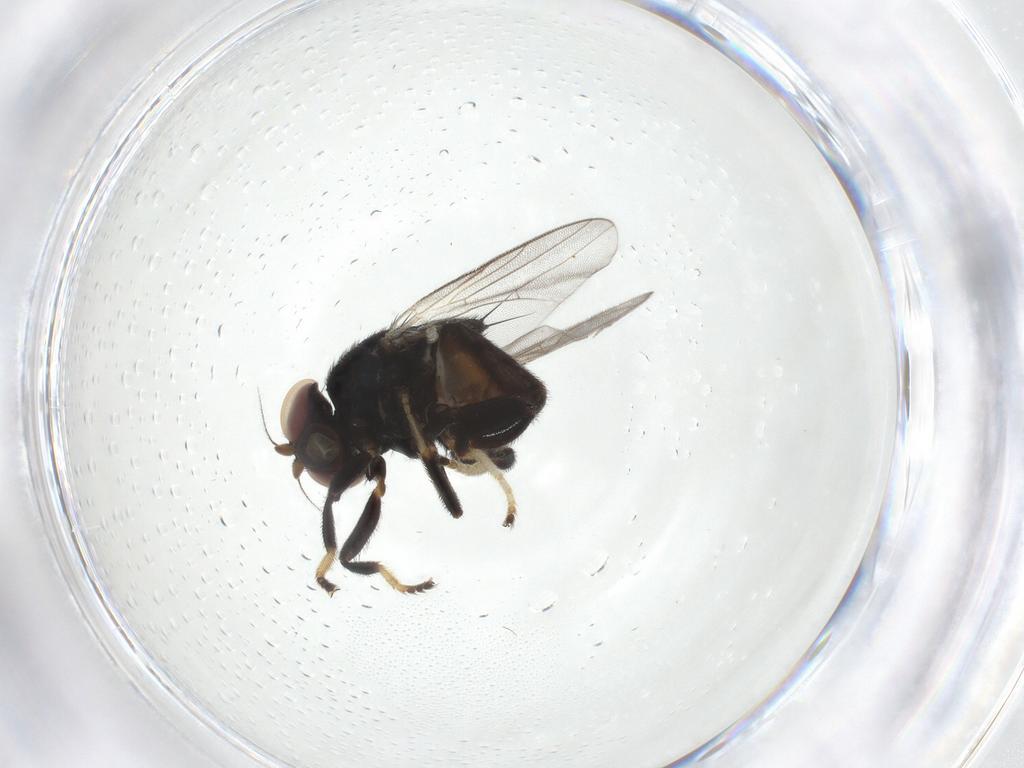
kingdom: Animalia
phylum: Arthropoda
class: Insecta
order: Diptera
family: Chloropidae
